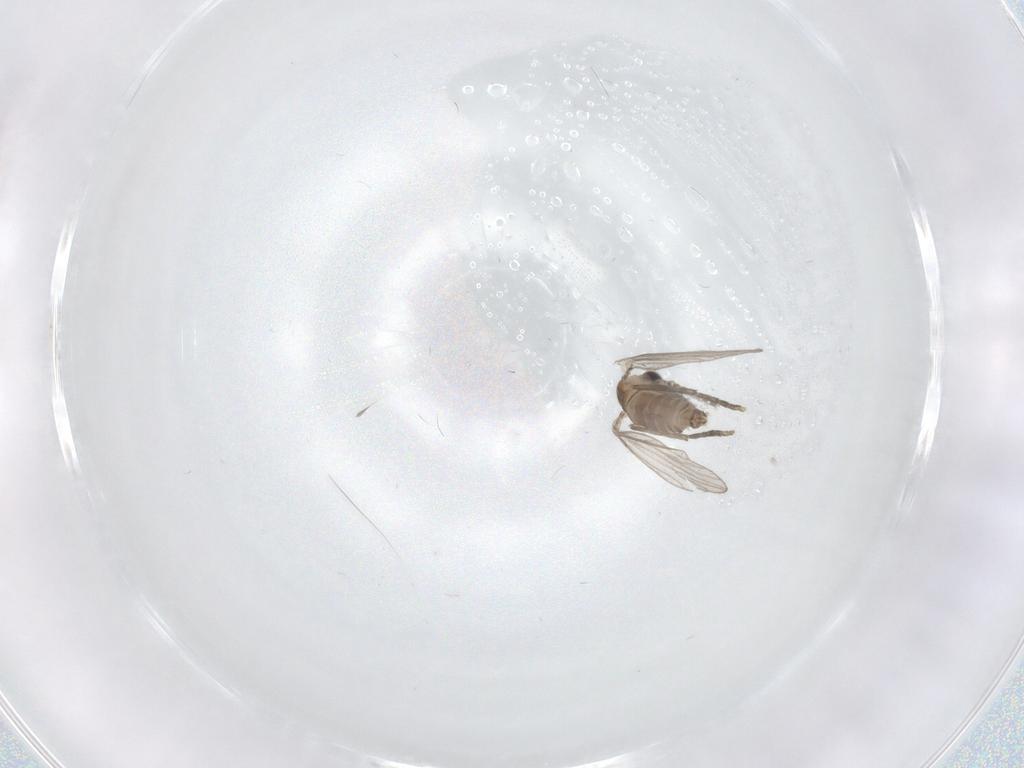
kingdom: Animalia
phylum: Arthropoda
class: Insecta
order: Diptera
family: Psychodidae
